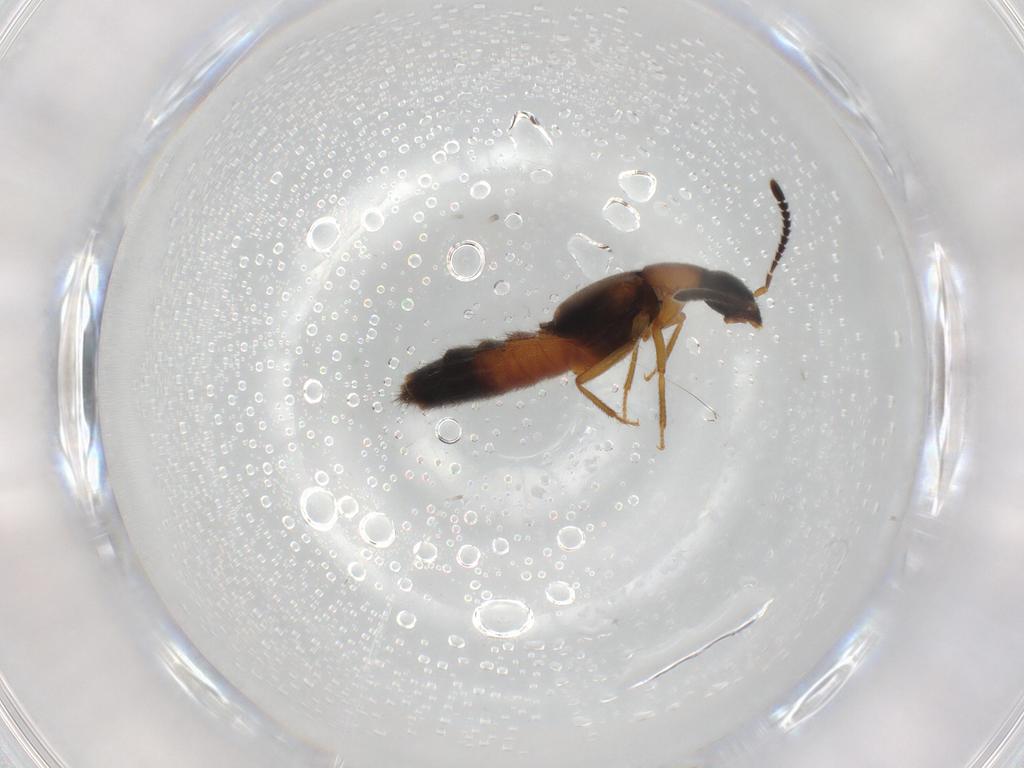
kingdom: Animalia
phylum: Arthropoda
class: Insecta
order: Coleoptera
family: Staphylinidae
